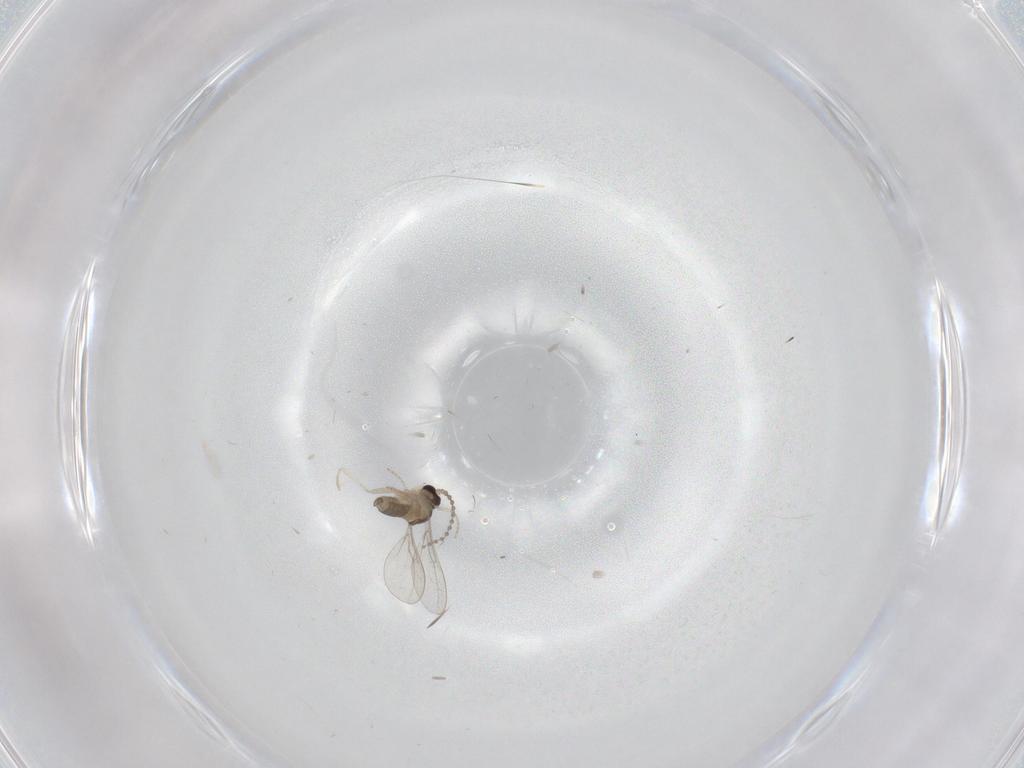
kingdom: Animalia
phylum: Arthropoda
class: Insecta
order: Diptera
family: Cecidomyiidae
